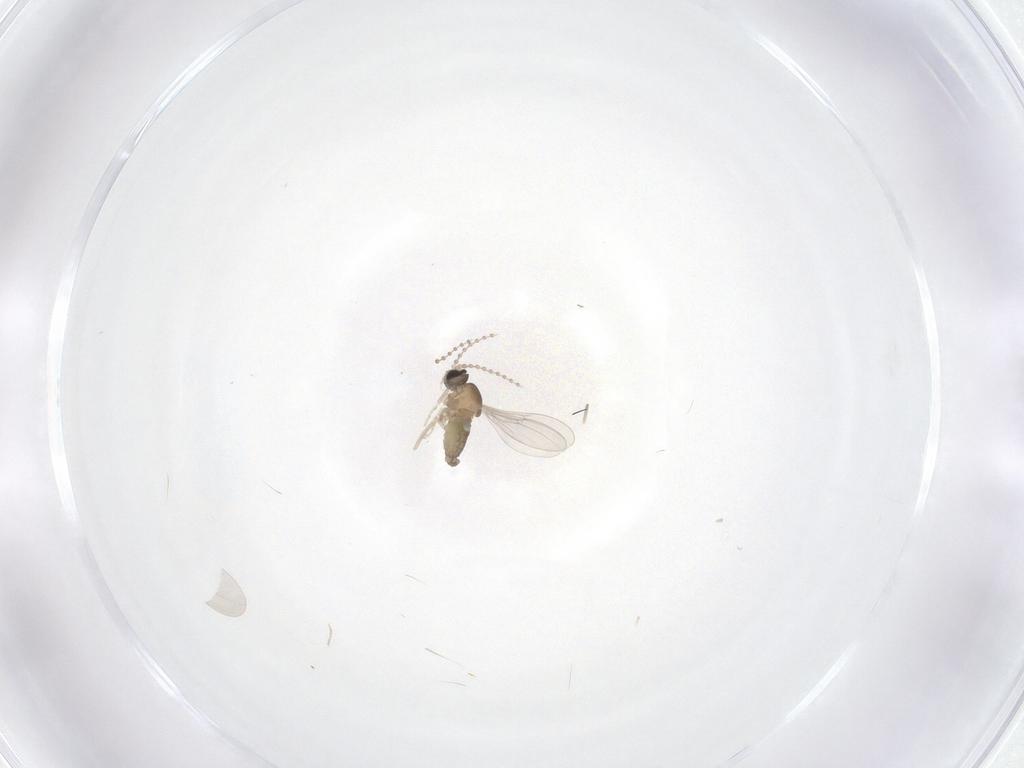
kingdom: Animalia
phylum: Arthropoda
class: Insecta
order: Diptera
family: Cecidomyiidae
